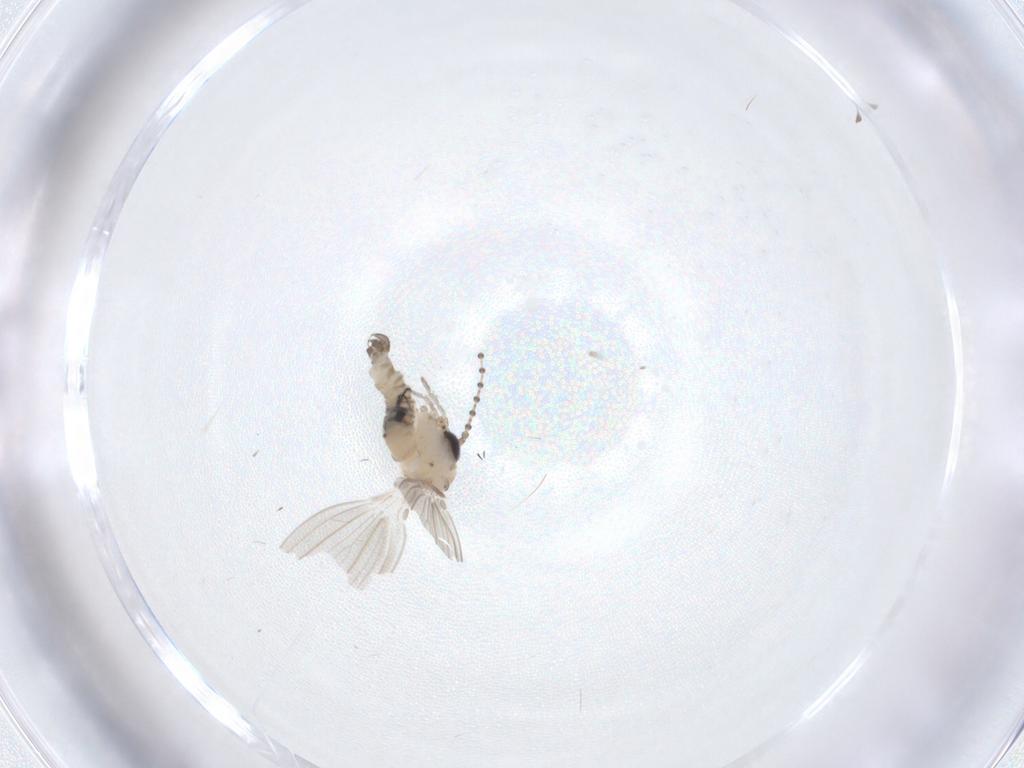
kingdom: Animalia
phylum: Arthropoda
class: Insecta
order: Diptera
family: Psychodidae
